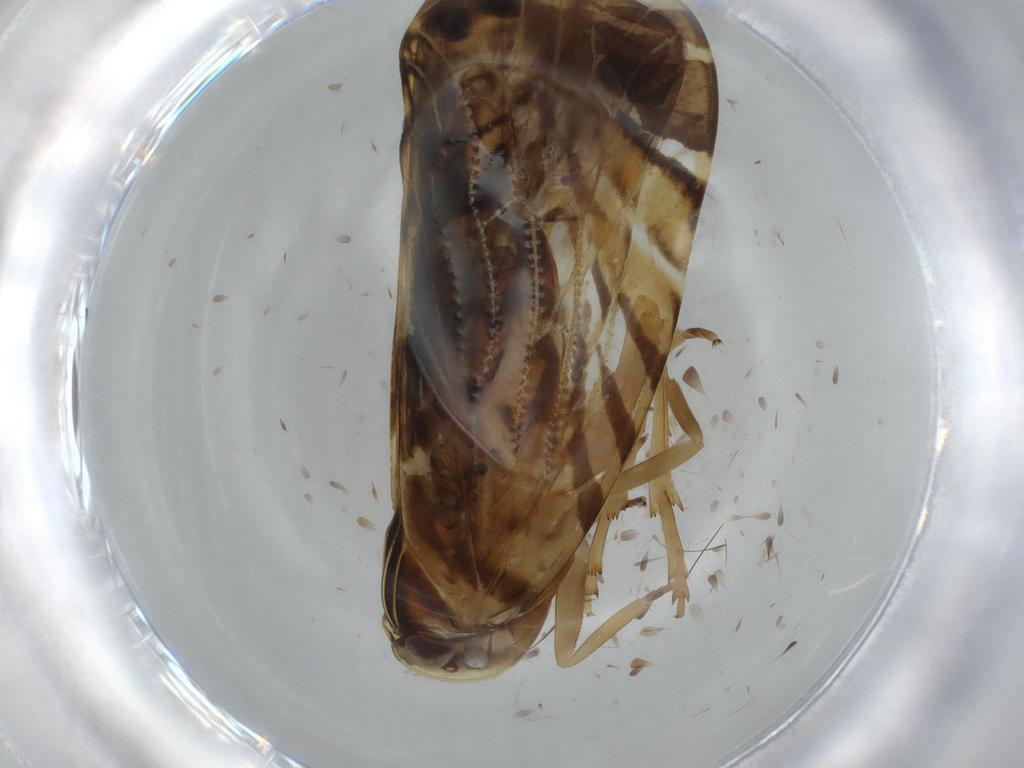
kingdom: Animalia
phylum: Arthropoda
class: Insecta
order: Hemiptera
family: Cixiidae
